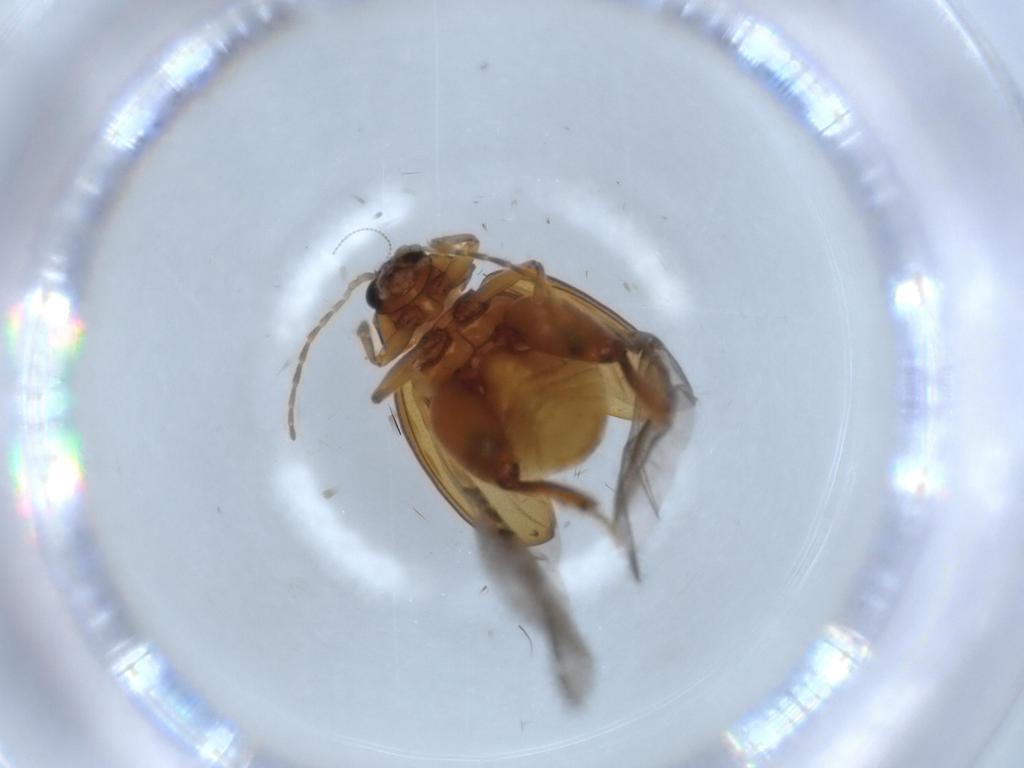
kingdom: Animalia
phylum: Arthropoda
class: Insecta
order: Coleoptera
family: Chrysomelidae
